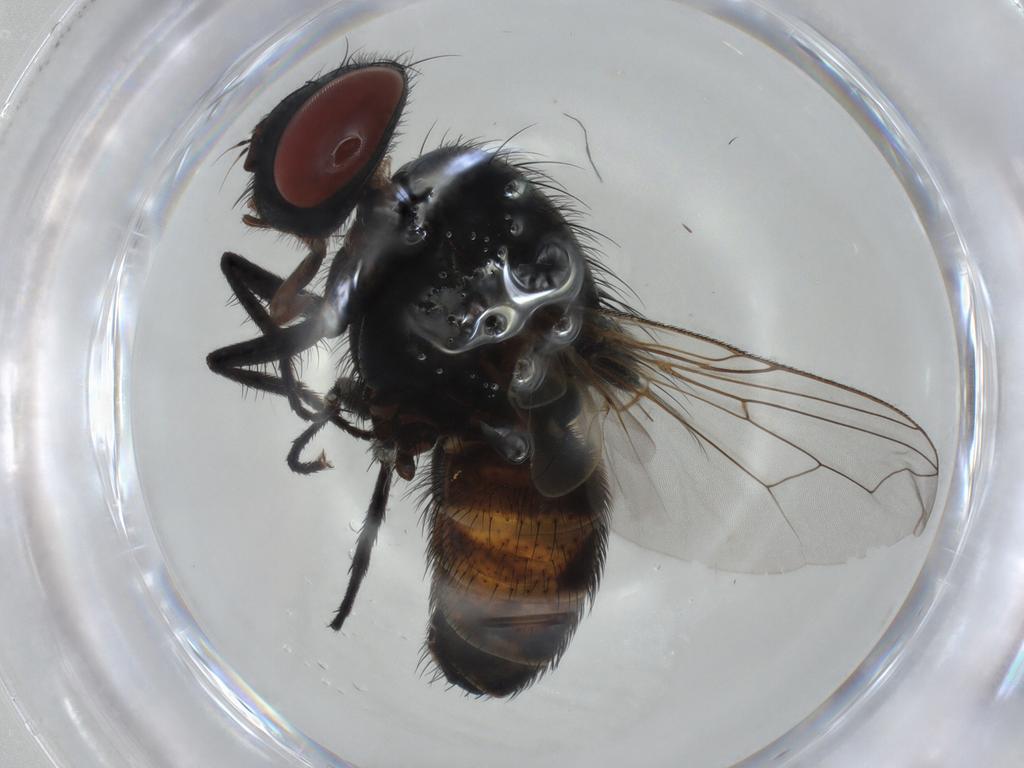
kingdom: Animalia
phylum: Arthropoda
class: Insecta
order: Diptera
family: Sarcophagidae
